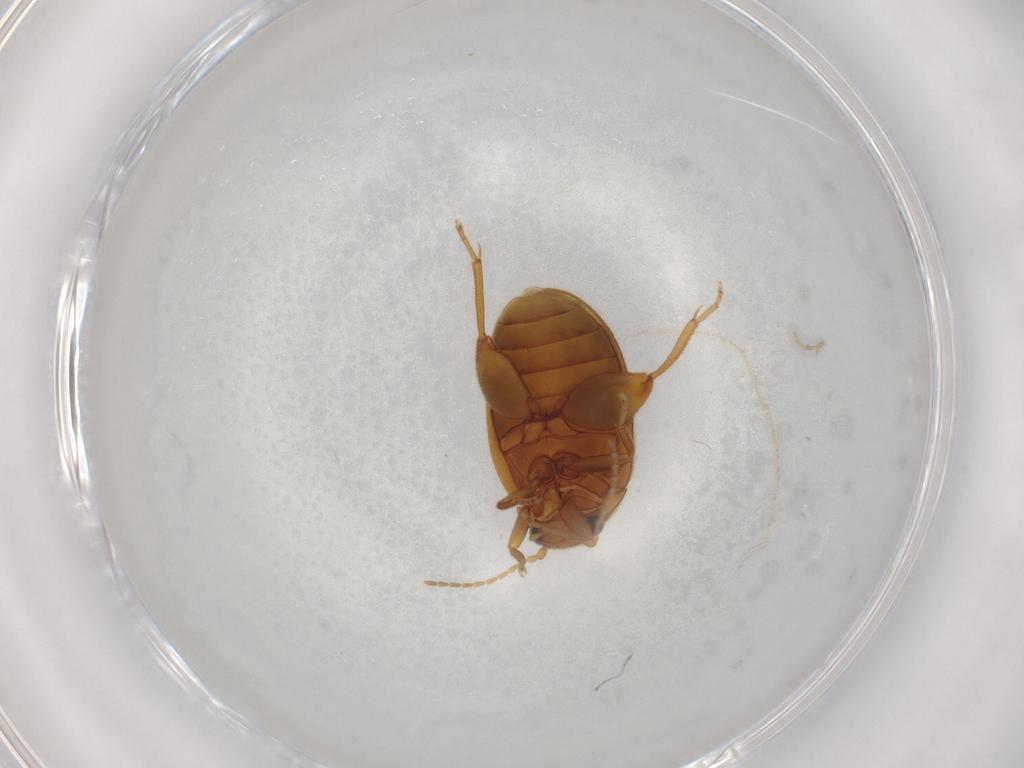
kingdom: Animalia
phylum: Arthropoda
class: Insecta
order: Coleoptera
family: Scirtidae
